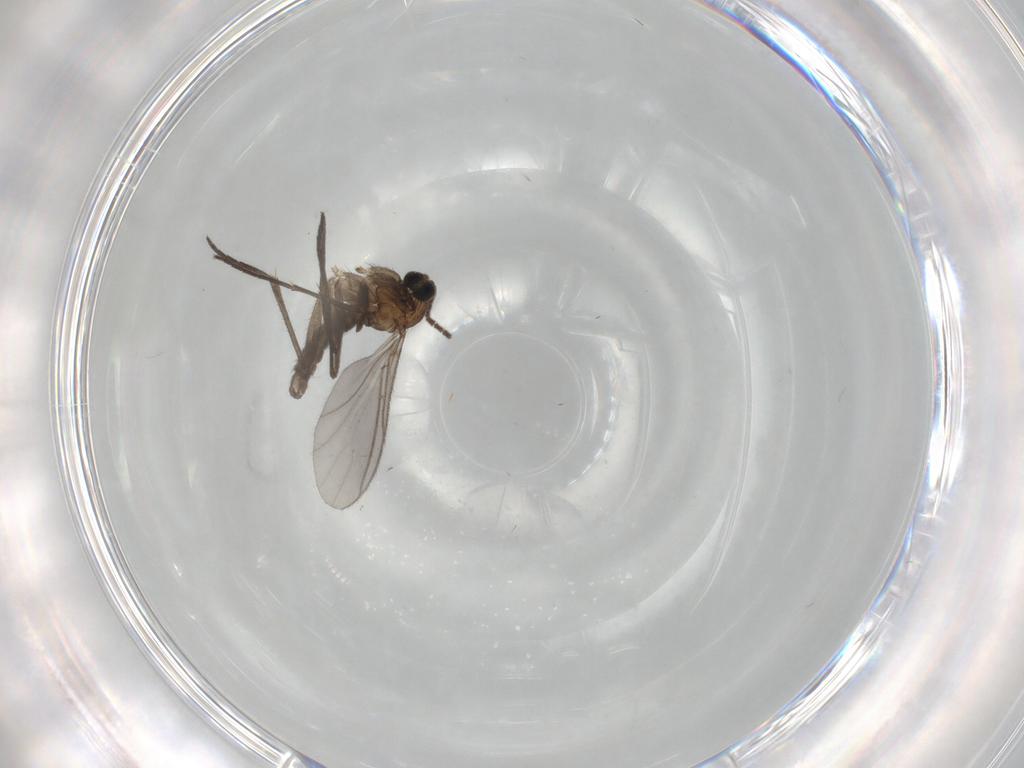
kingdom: Animalia
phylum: Arthropoda
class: Insecta
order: Diptera
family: Sciaridae
